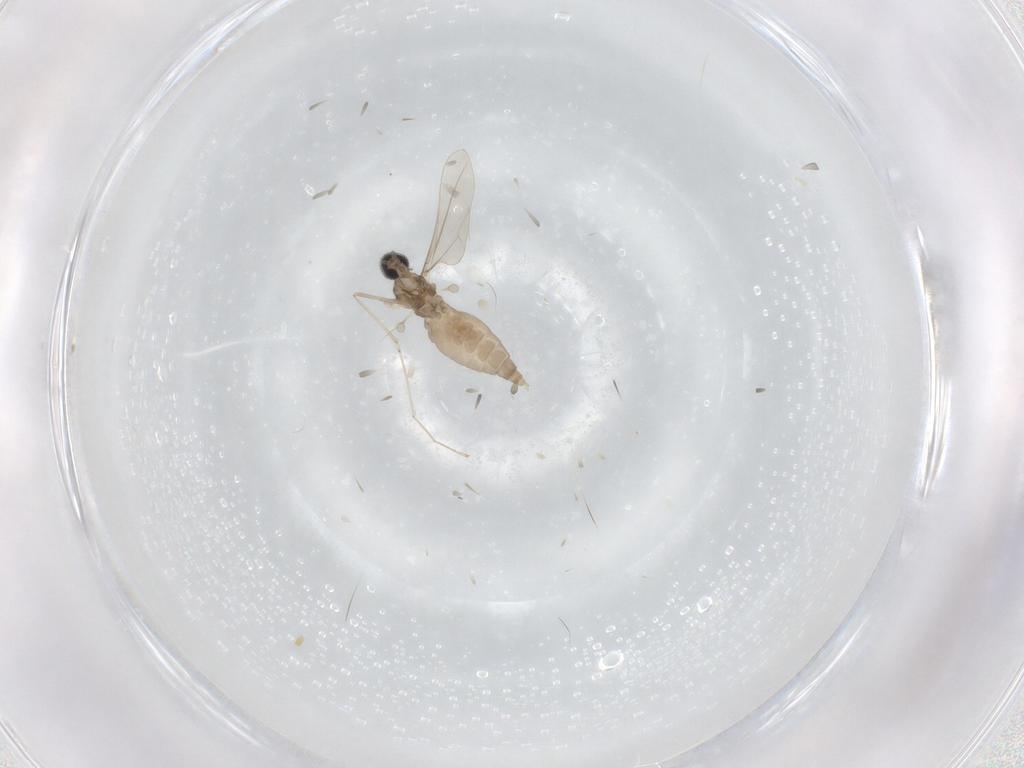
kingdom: Animalia
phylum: Arthropoda
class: Insecta
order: Diptera
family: Ceratopogonidae
